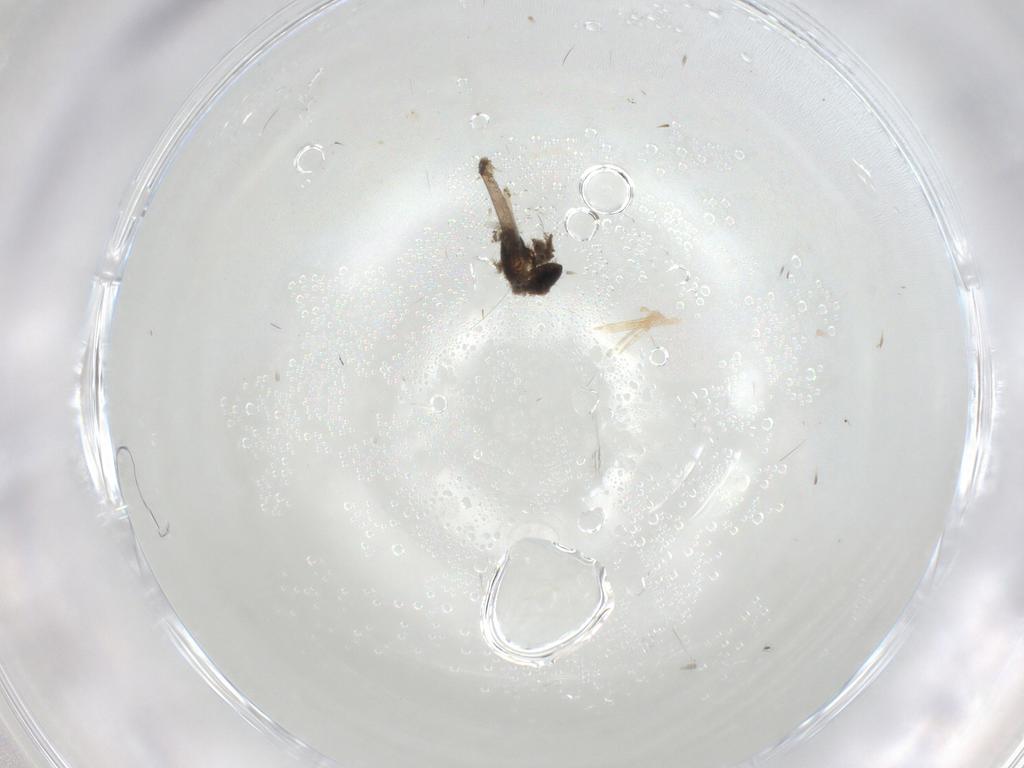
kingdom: Animalia
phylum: Arthropoda
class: Insecta
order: Diptera
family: Sciaridae
